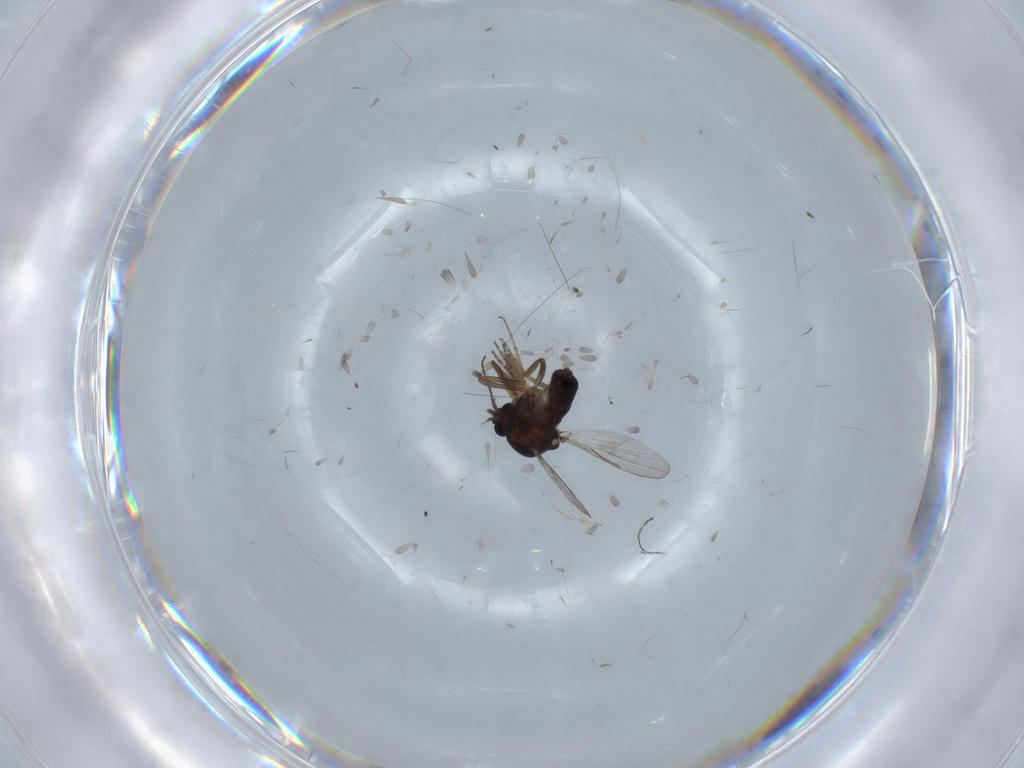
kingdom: Animalia
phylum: Arthropoda
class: Insecta
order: Diptera
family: Ceratopogonidae
